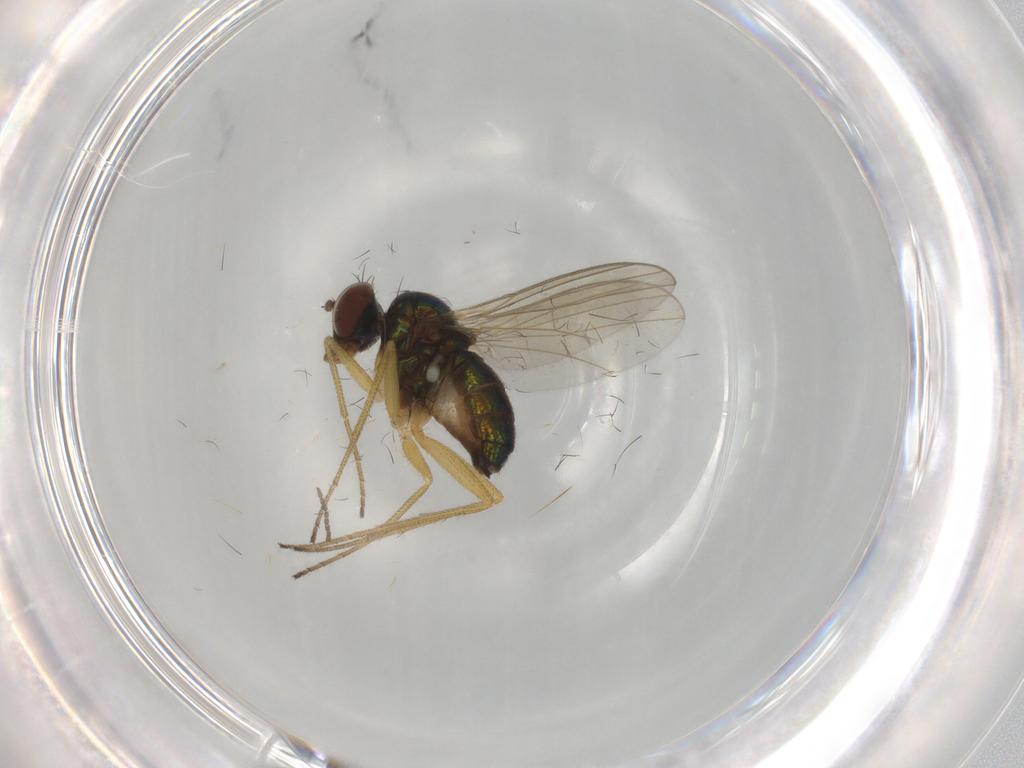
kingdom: Animalia
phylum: Arthropoda
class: Insecta
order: Diptera
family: Dolichopodidae
